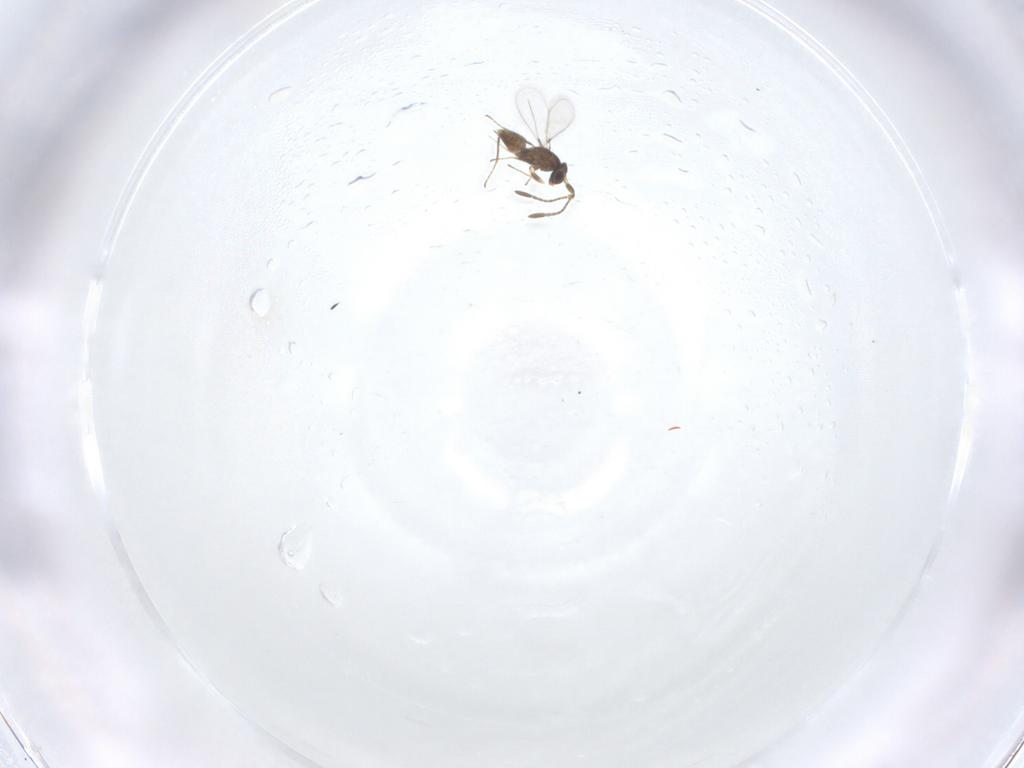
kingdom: Animalia
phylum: Arthropoda
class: Insecta
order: Hymenoptera
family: Mymaridae
